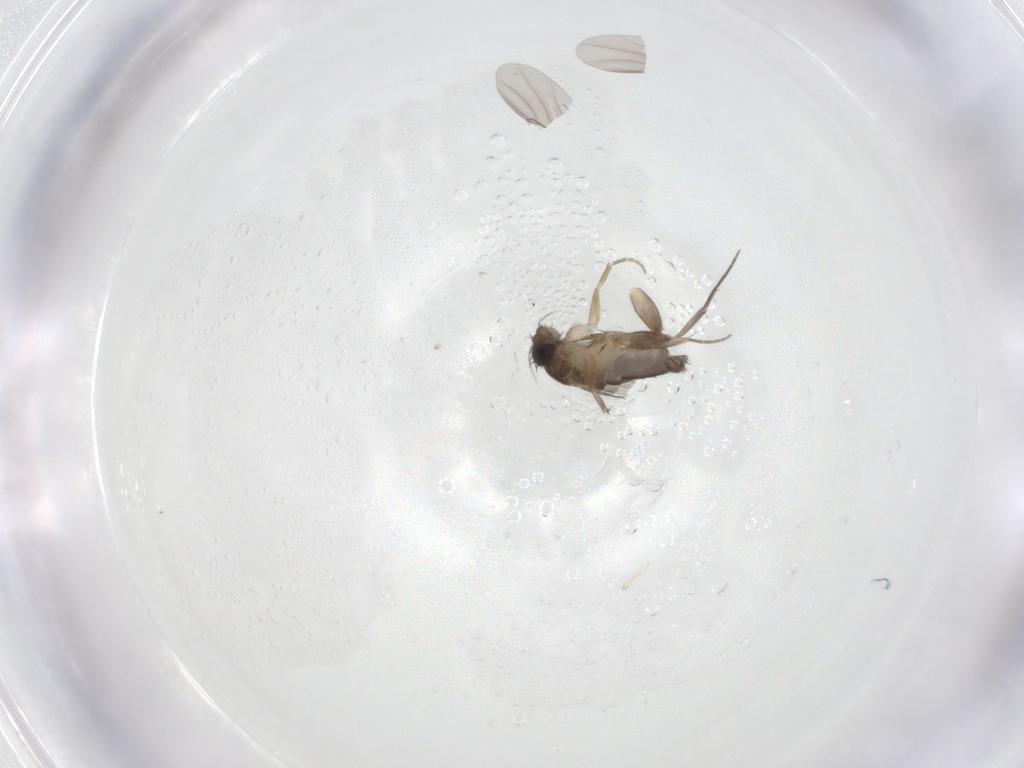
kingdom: Animalia
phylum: Arthropoda
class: Insecta
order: Diptera
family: Phoridae
